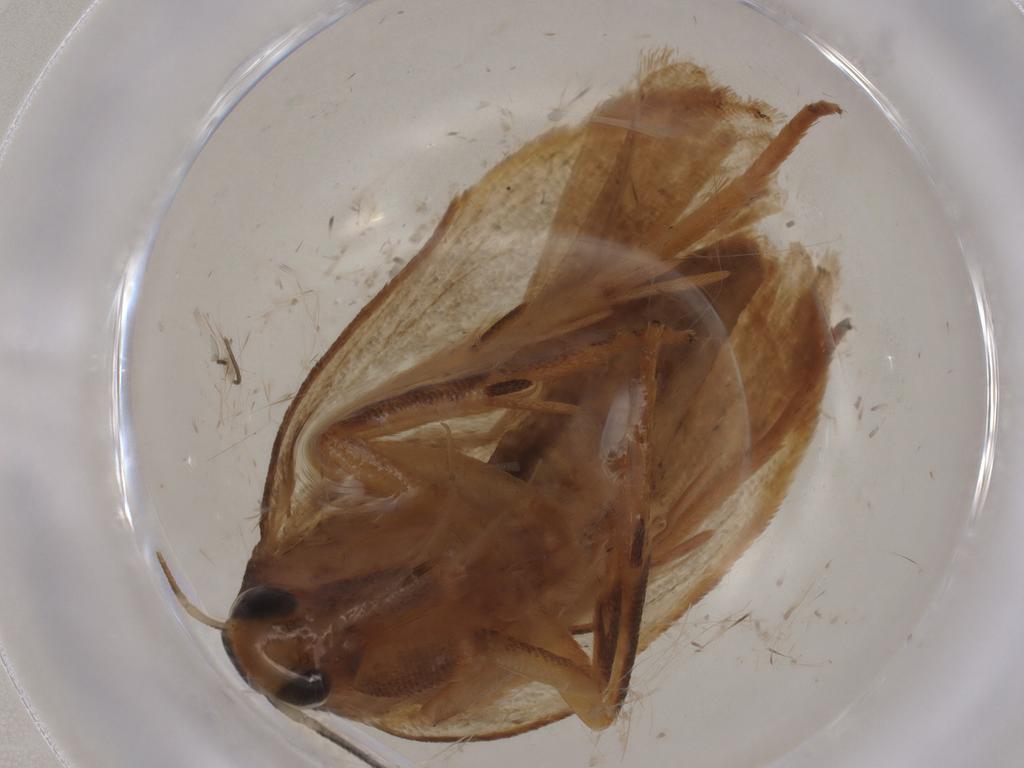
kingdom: Animalia
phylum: Arthropoda
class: Insecta
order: Lepidoptera
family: Gelechiidae
